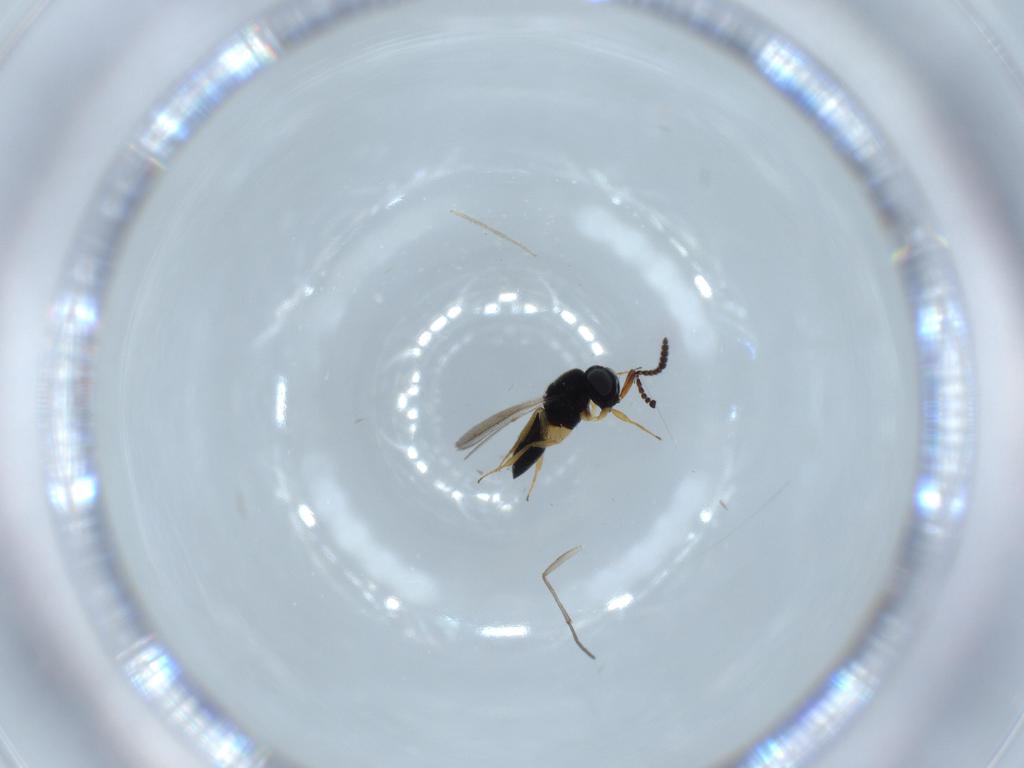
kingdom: Animalia
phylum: Arthropoda
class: Insecta
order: Hymenoptera
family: Scelionidae
